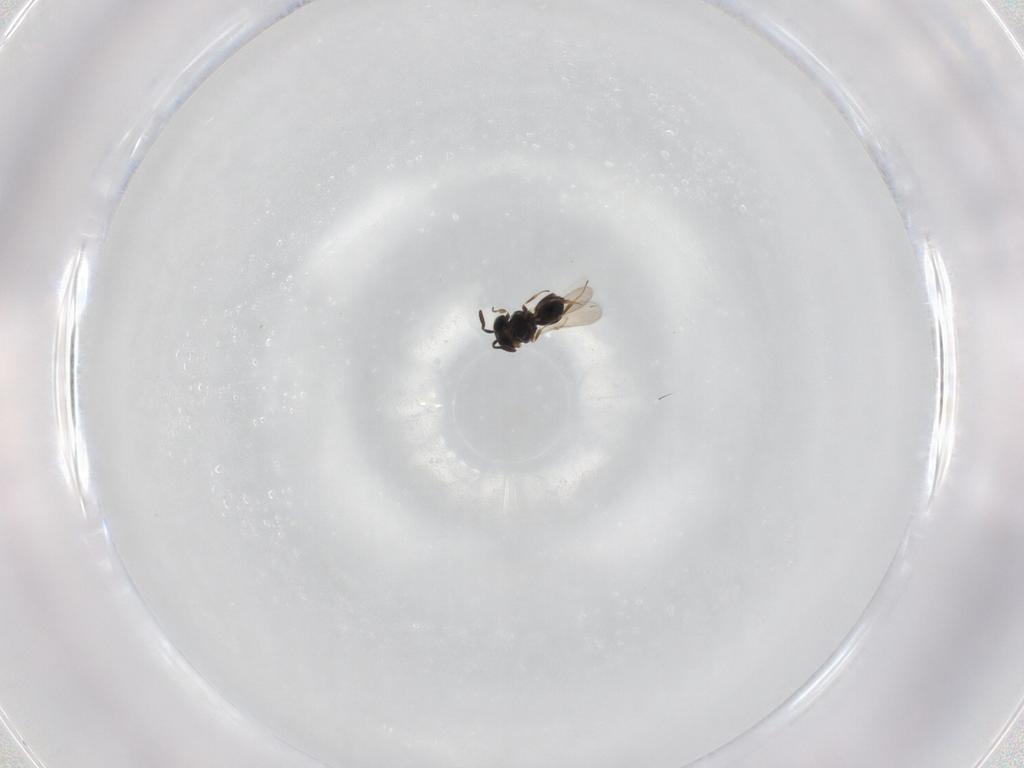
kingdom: Animalia
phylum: Arthropoda
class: Insecta
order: Hymenoptera
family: Scelionidae
